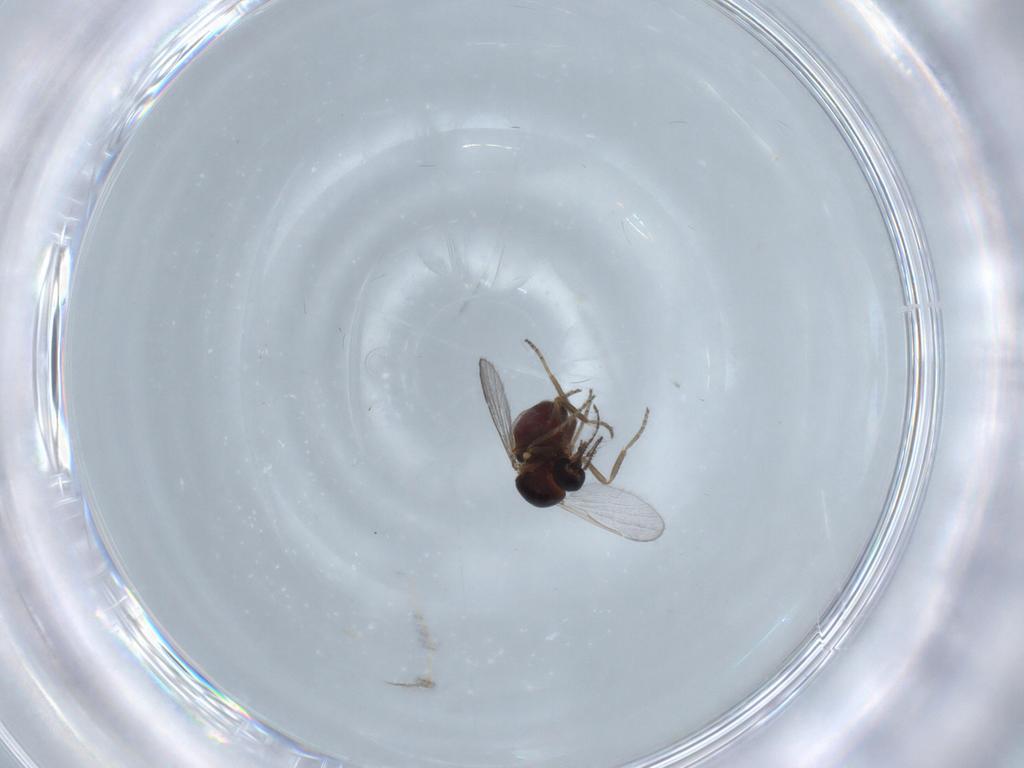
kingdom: Animalia
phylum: Arthropoda
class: Insecta
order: Diptera
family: Ceratopogonidae
